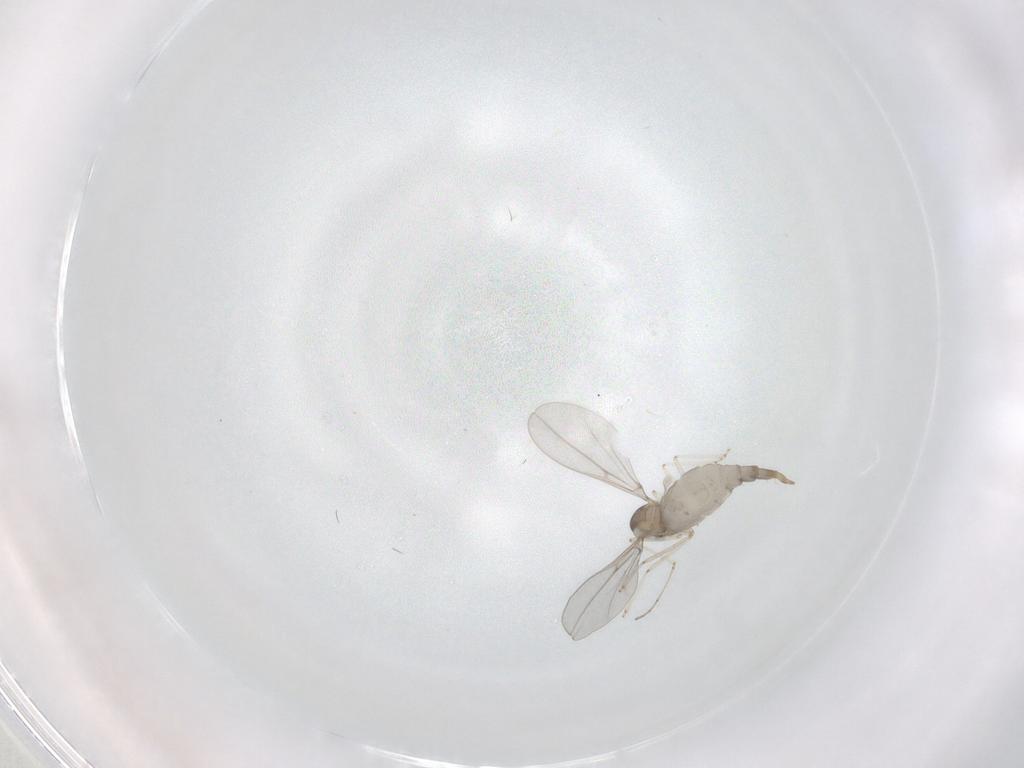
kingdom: Animalia
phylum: Arthropoda
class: Insecta
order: Diptera
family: Cecidomyiidae
